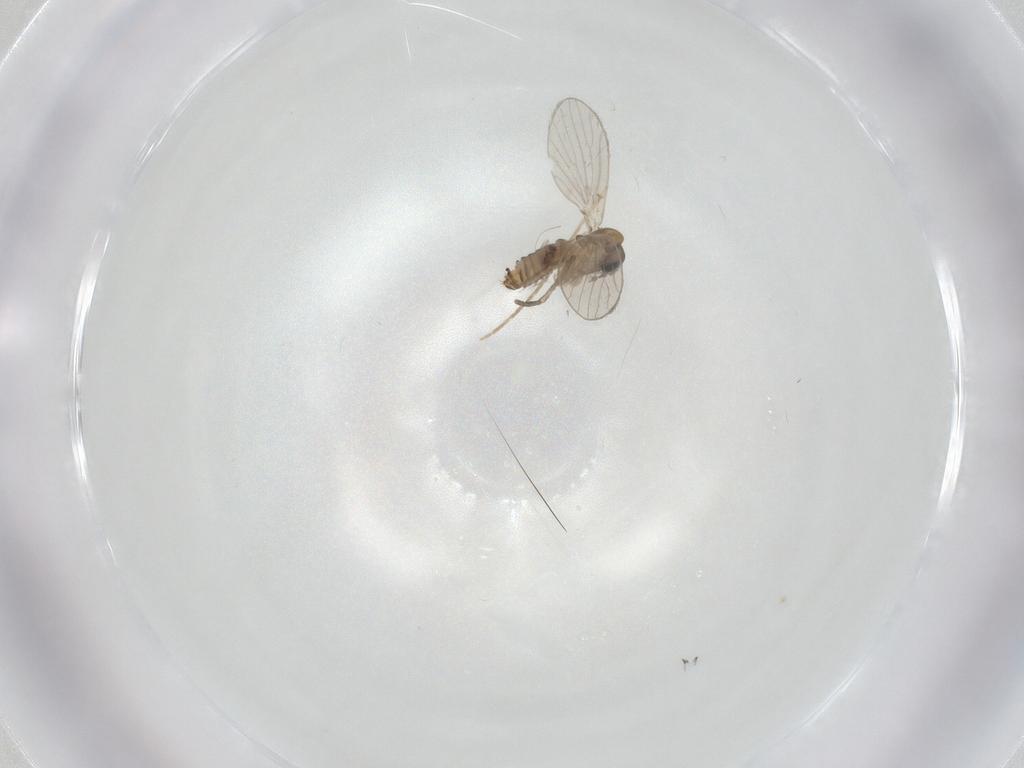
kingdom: Animalia
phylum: Arthropoda
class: Insecta
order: Diptera
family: Chironomidae
